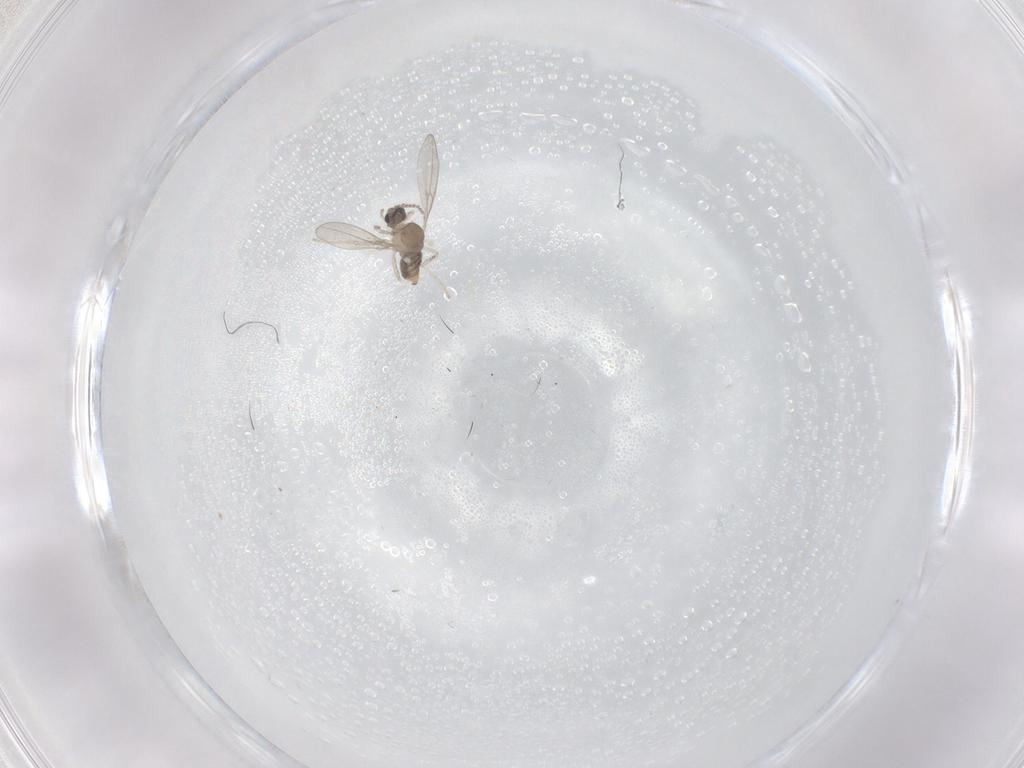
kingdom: Animalia
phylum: Arthropoda
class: Insecta
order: Diptera
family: Cecidomyiidae
